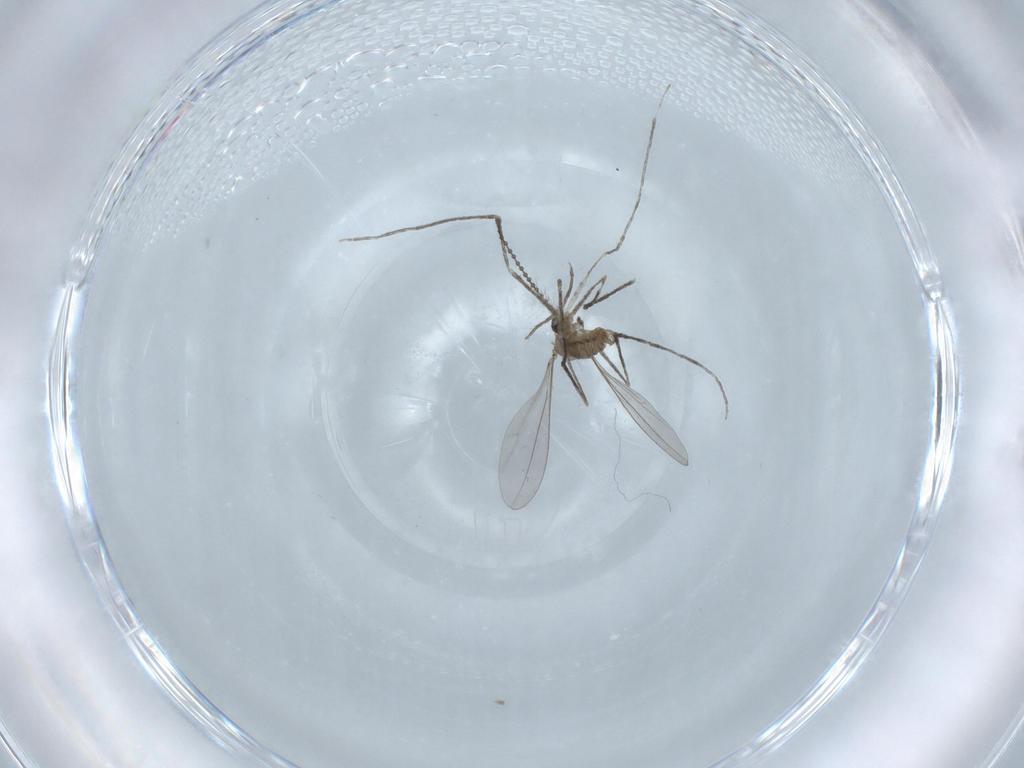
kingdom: Animalia
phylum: Arthropoda
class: Insecta
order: Diptera
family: Cecidomyiidae
